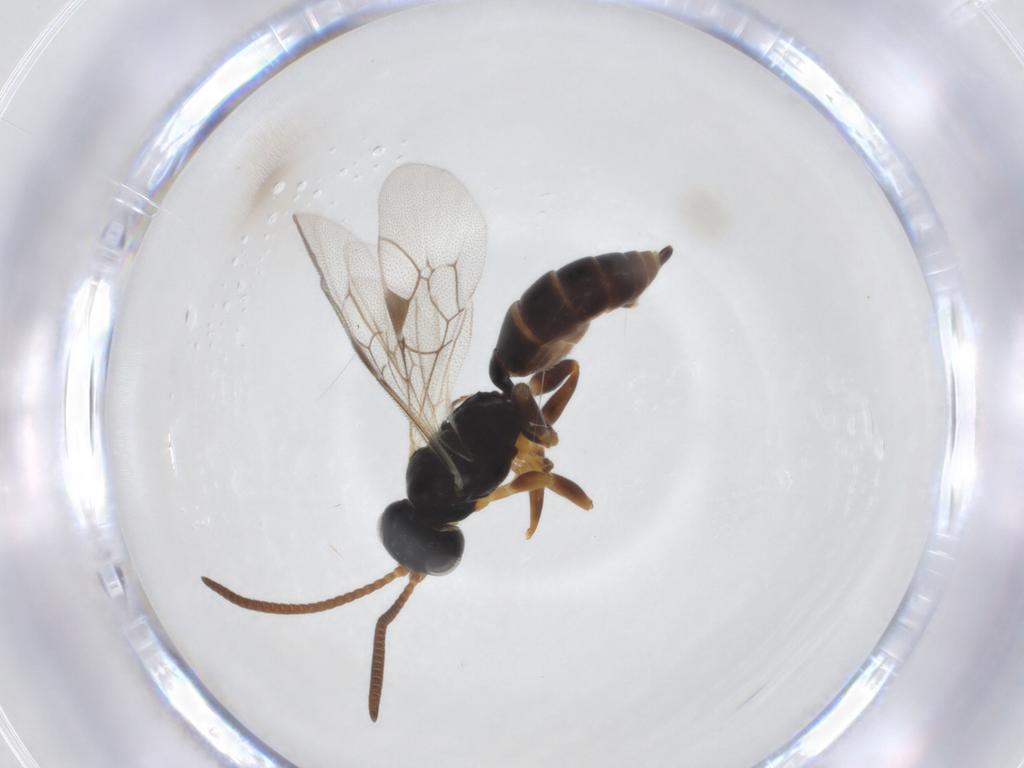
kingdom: Animalia
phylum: Arthropoda
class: Insecta
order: Hymenoptera
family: Ichneumonidae
